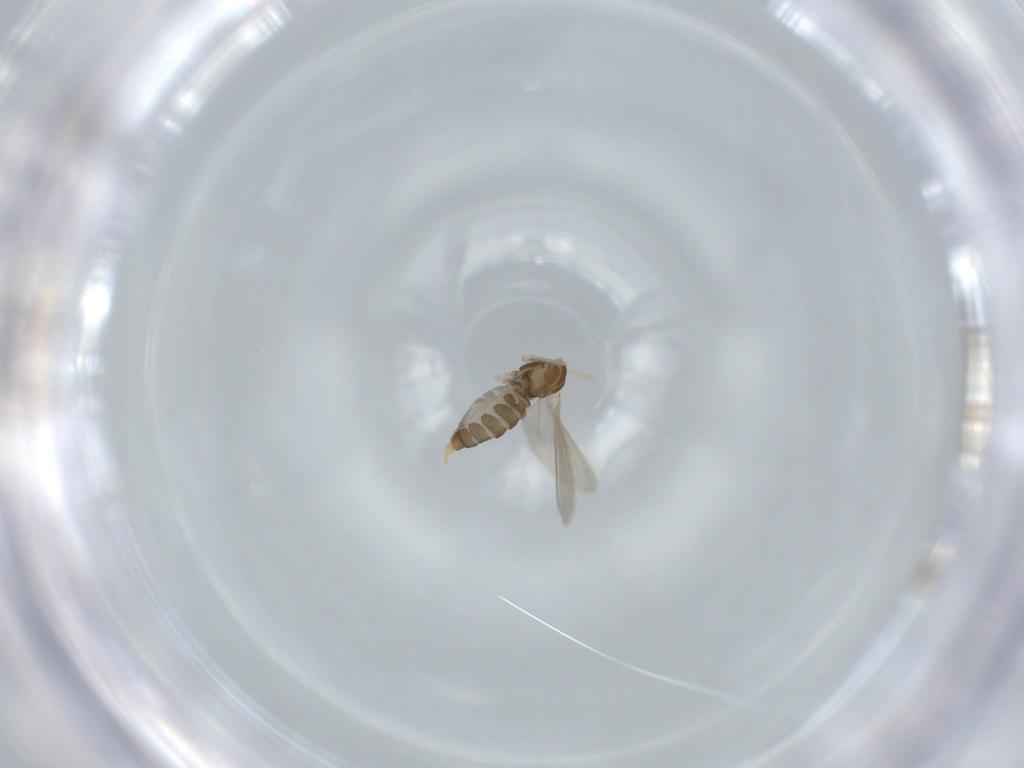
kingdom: Animalia
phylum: Arthropoda
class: Insecta
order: Diptera
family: Cecidomyiidae
